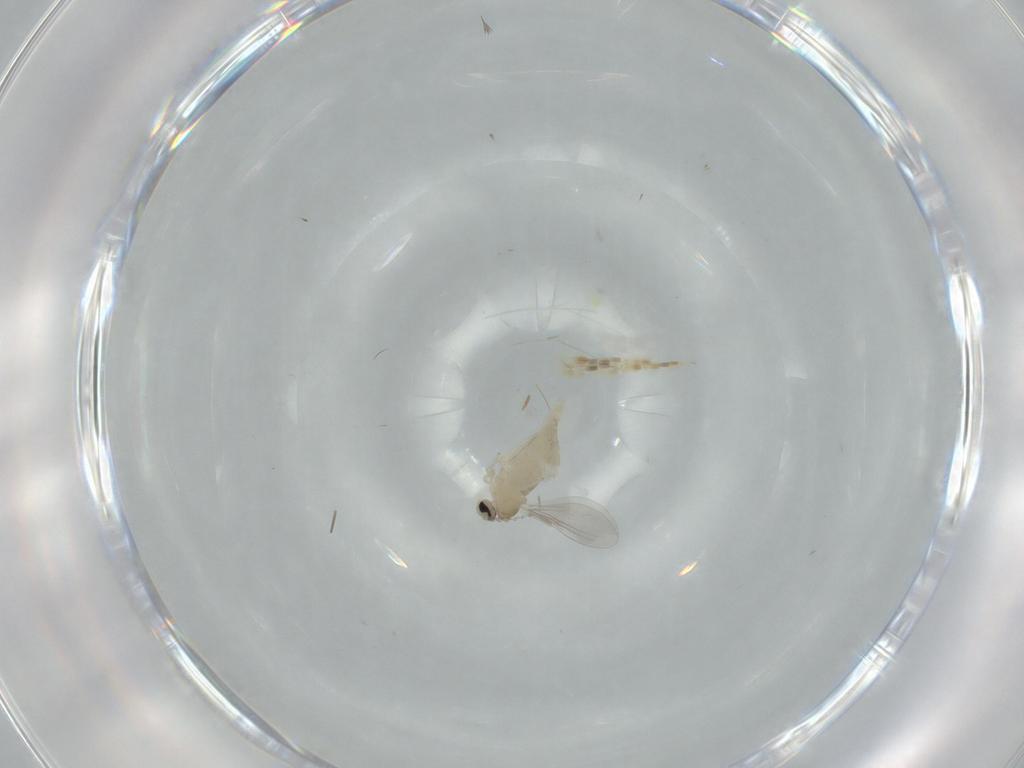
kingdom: Animalia
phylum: Arthropoda
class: Insecta
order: Diptera
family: Cecidomyiidae
